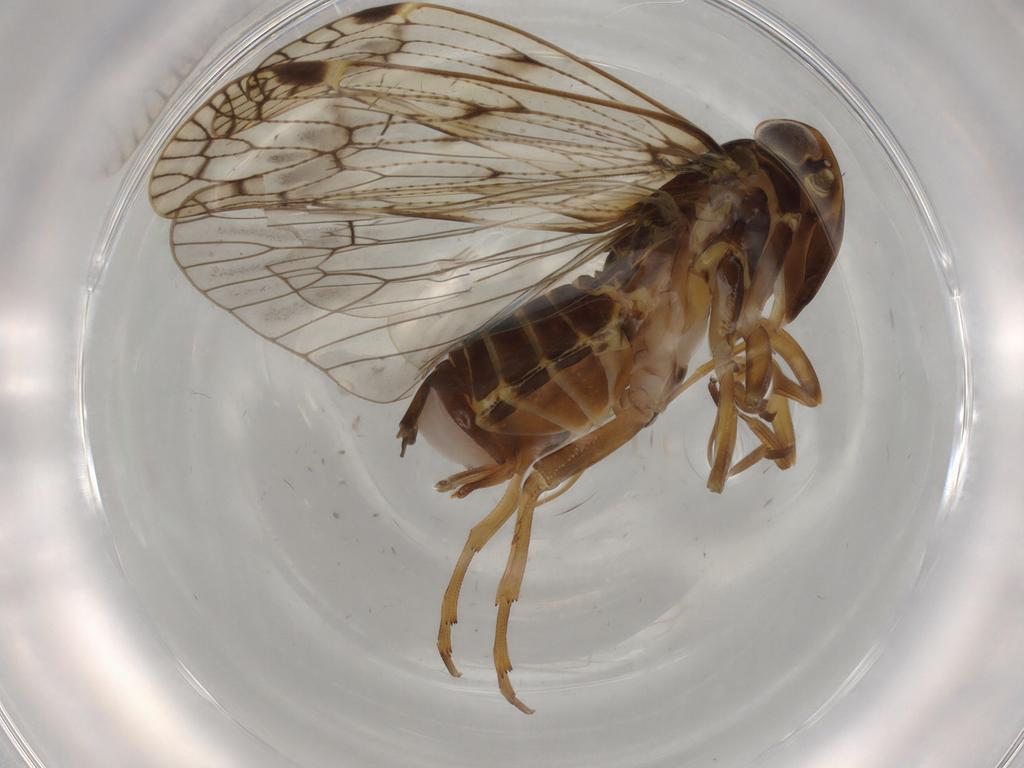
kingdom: Animalia
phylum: Arthropoda
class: Insecta
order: Hemiptera
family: Cixiidae
